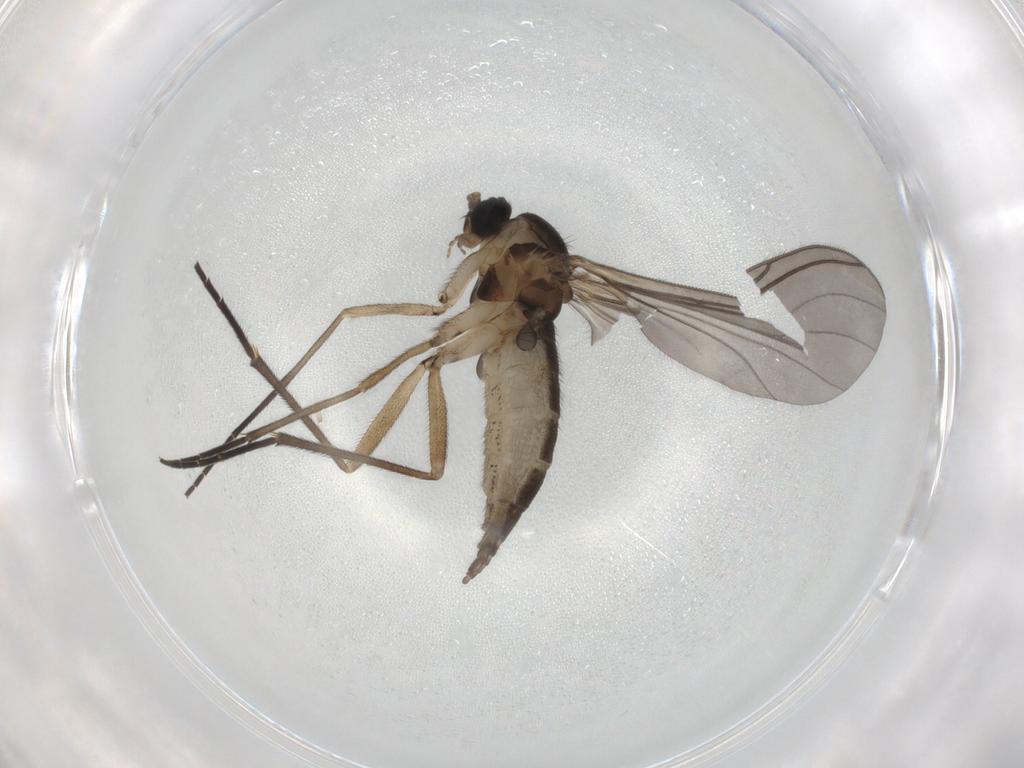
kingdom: Animalia
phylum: Arthropoda
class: Insecta
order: Diptera
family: Sciaridae
